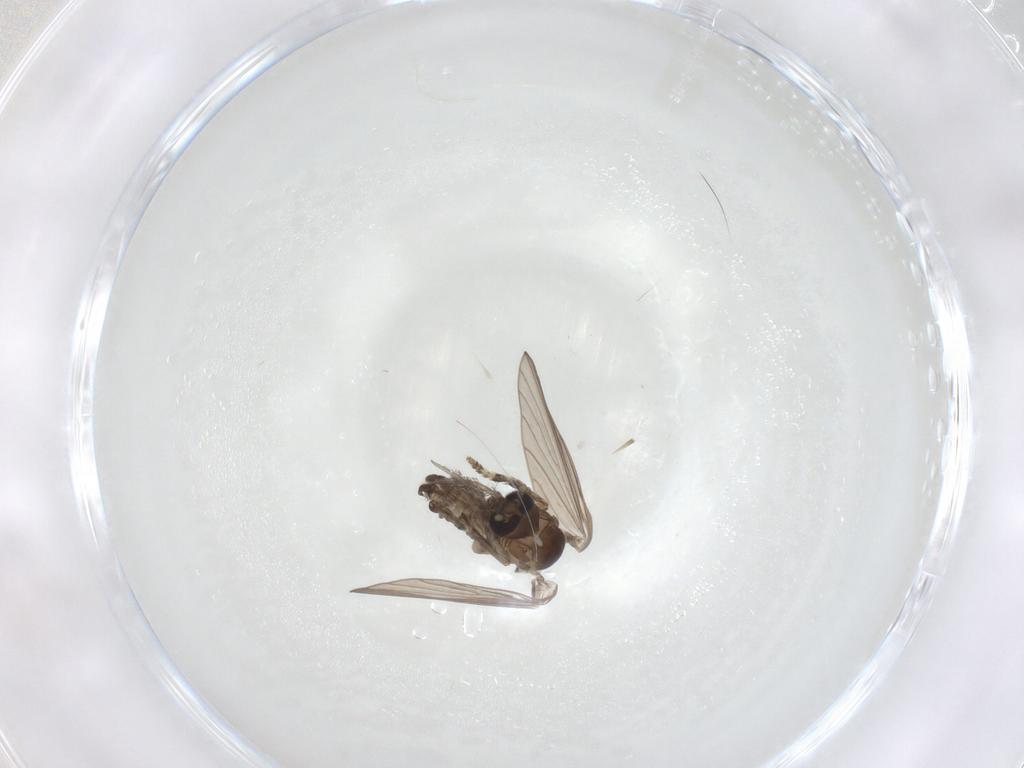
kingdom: Animalia
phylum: Arthropoda
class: Insecta
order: Diptera
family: Psychodidae
